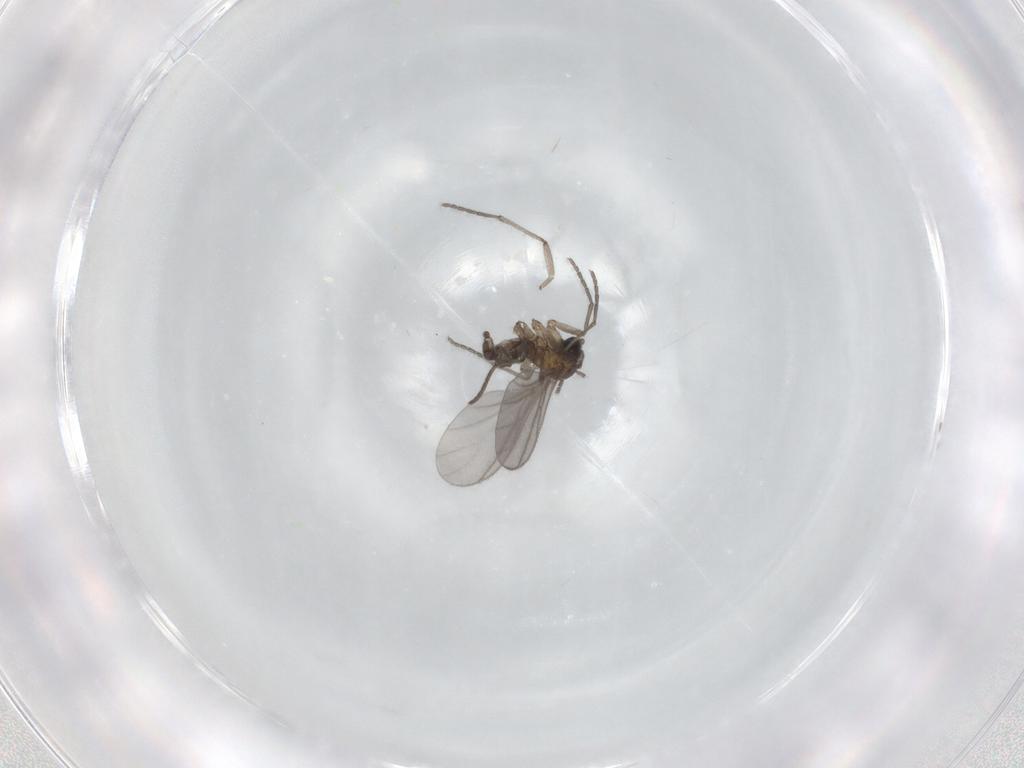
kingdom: Animalia
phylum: Arthropoda
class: Insecta
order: Diptera
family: Sciaridae
